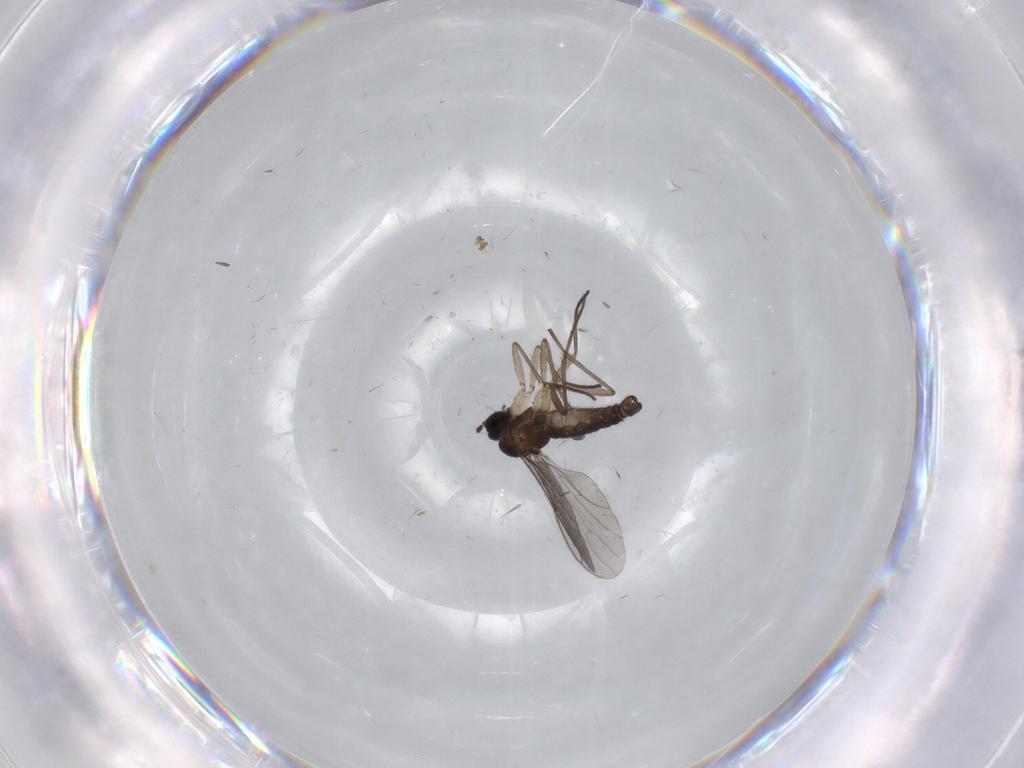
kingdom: Animalia
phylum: Arthropoda
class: Insecta
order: Diptera
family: Sciaridae
